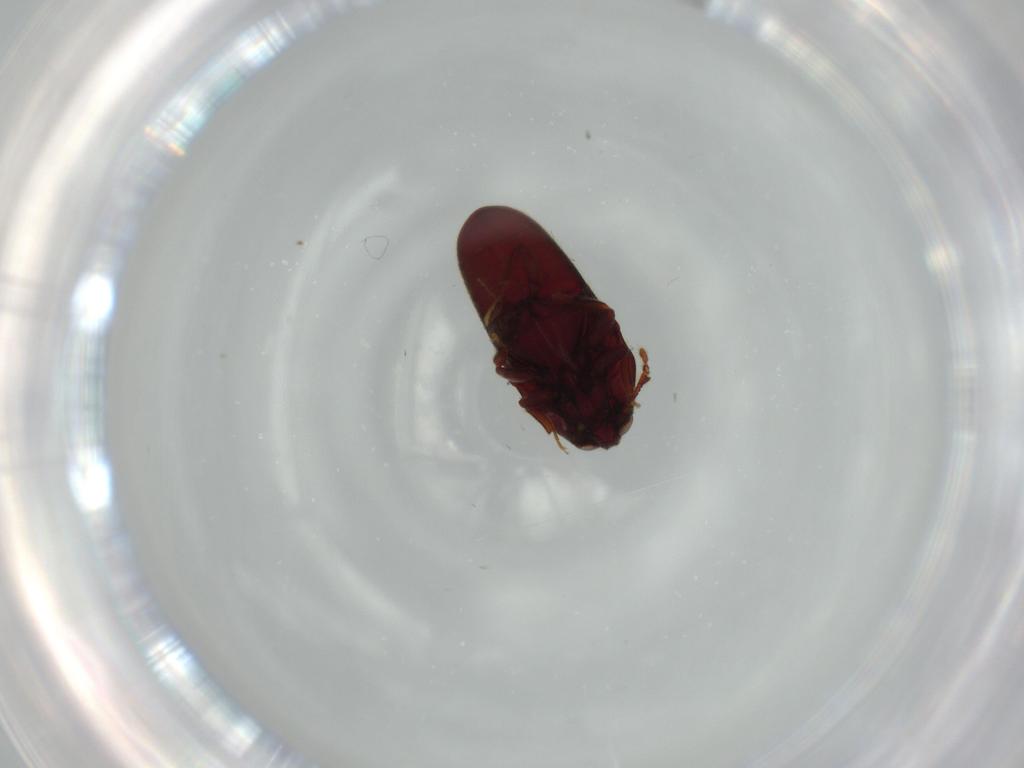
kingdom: Animalia
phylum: Arthropoda
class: Insecta
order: Coleoptera
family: Throscidae
